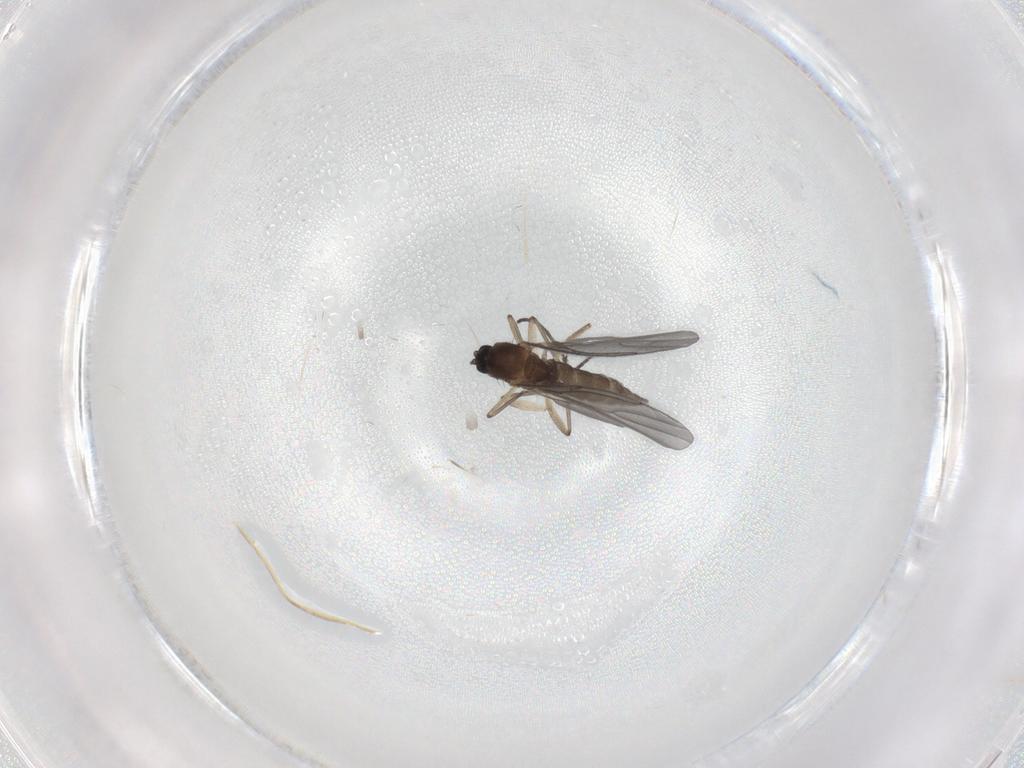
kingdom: Animalia
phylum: Arthropoda
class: Insecta
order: Diptera
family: Sciaridae
